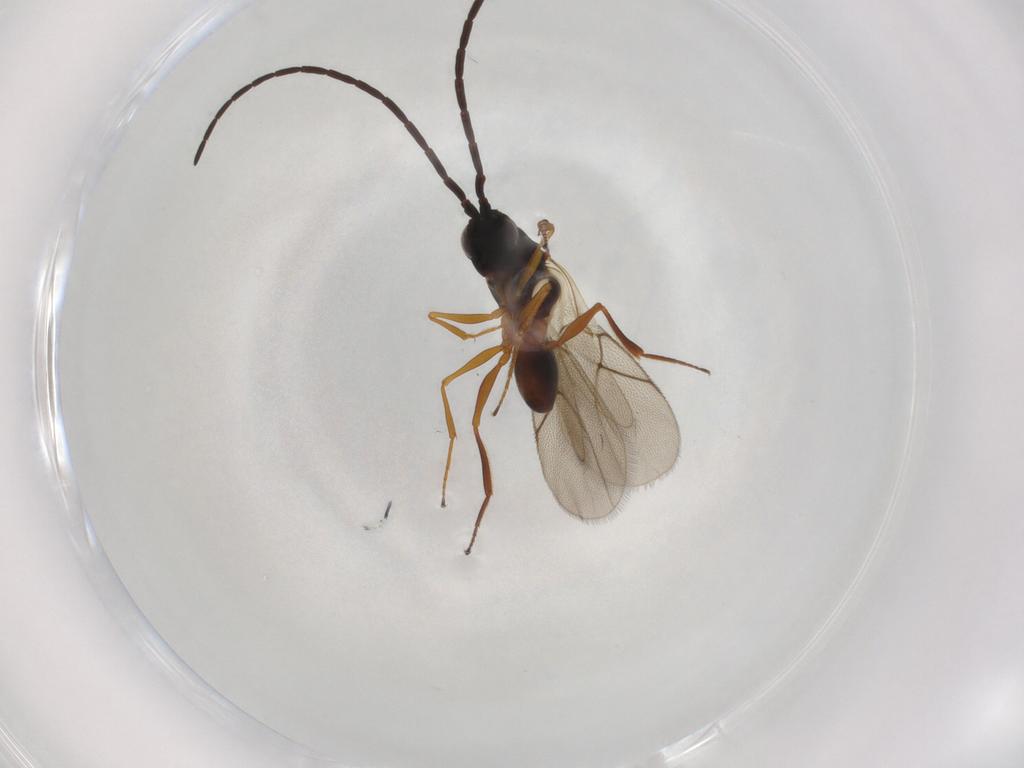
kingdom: Animalia
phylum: Arthropoda
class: Insecta
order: Hymenoptera
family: Figitidae
